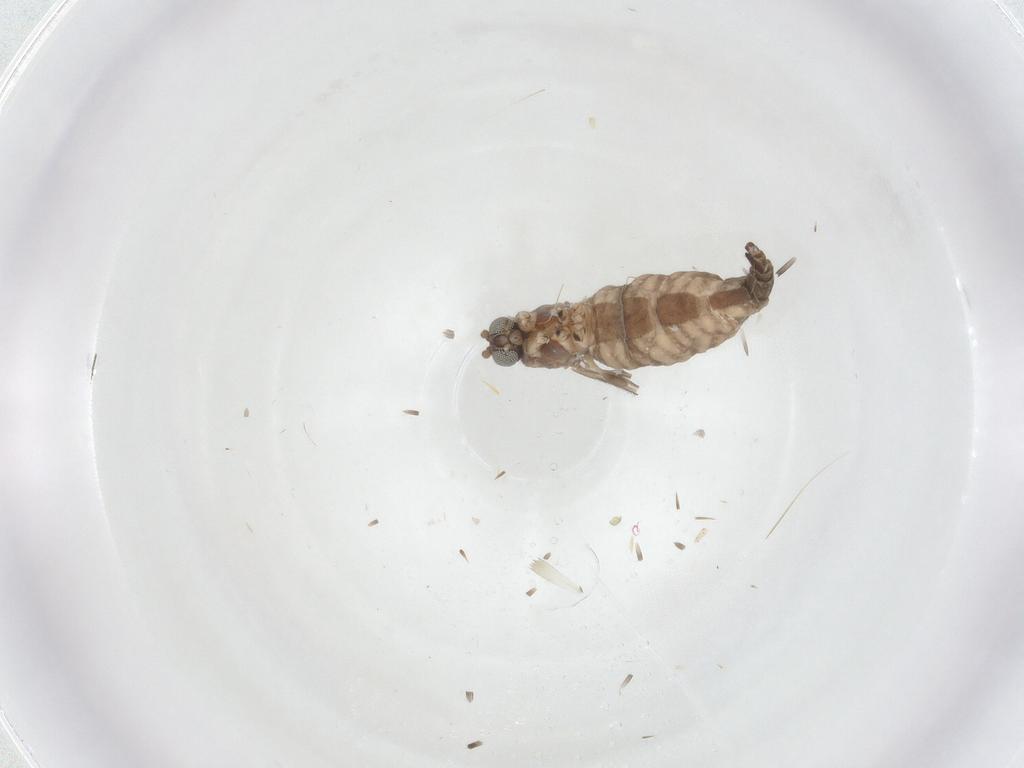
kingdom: Animalia
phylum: Arthropoda
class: Insecta
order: Diptera
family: Sciaridae
